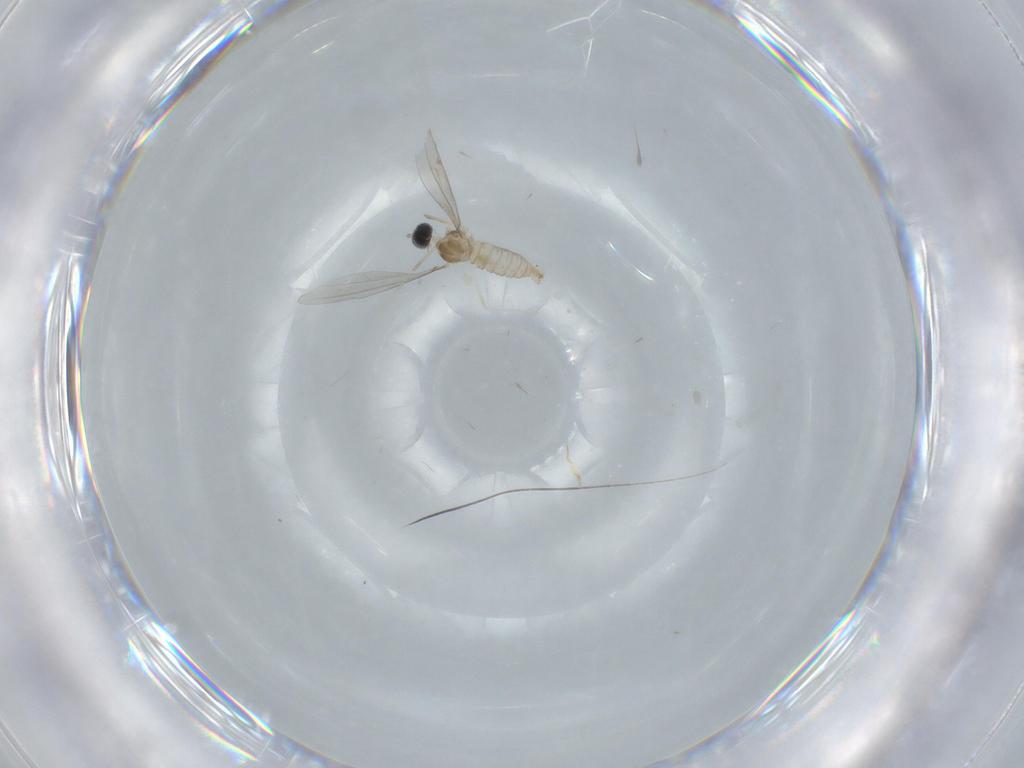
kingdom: Animalia
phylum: Arthropoda
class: Insecta
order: Diptera
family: Cecidomyiidae
